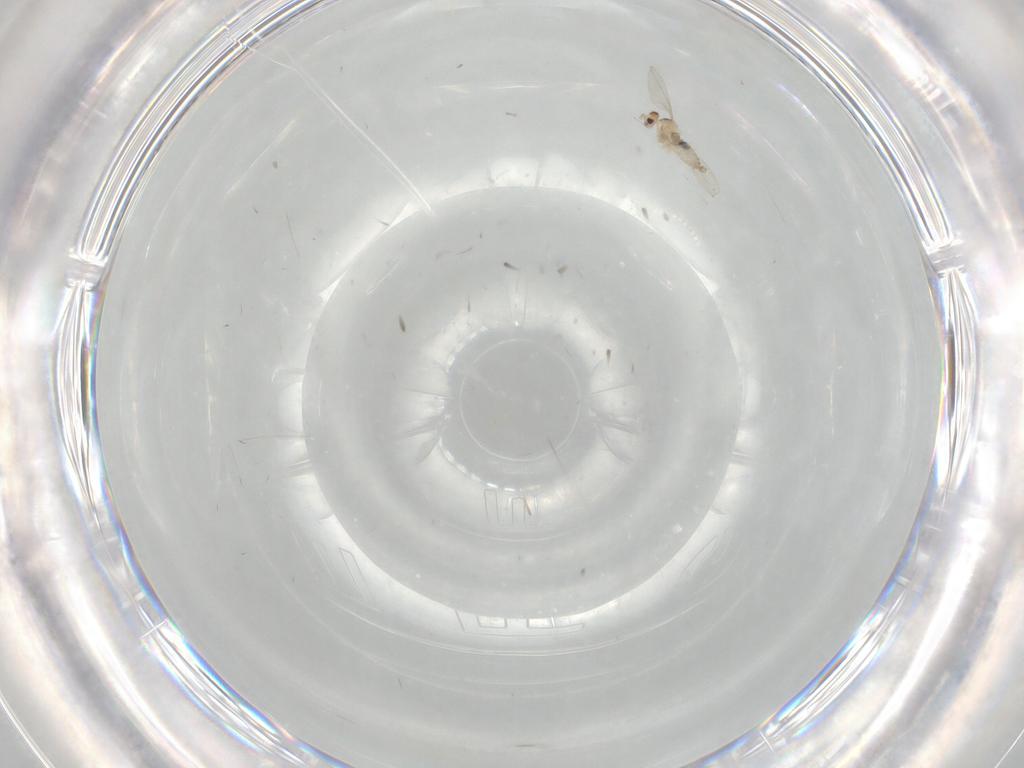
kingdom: Animalia
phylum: Arthropoda
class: Insecta
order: Diptera
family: Cecidomyiidae
